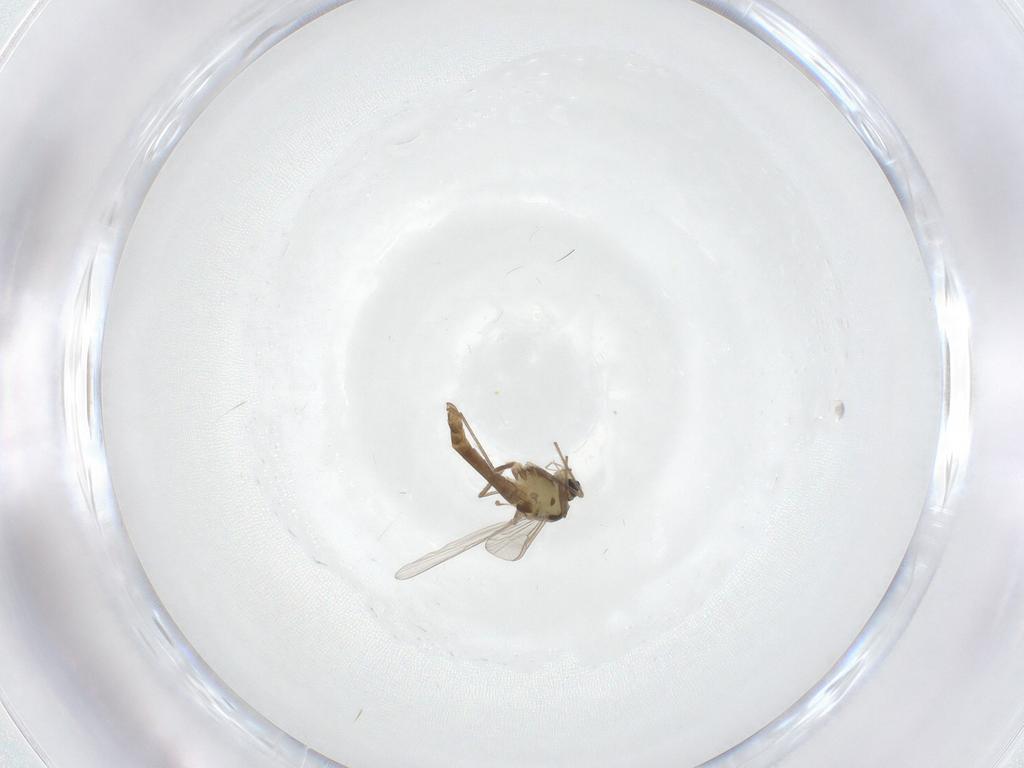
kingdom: Animalia
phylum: Arthropoda
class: Insecta
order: Diptera
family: Chironomidae
